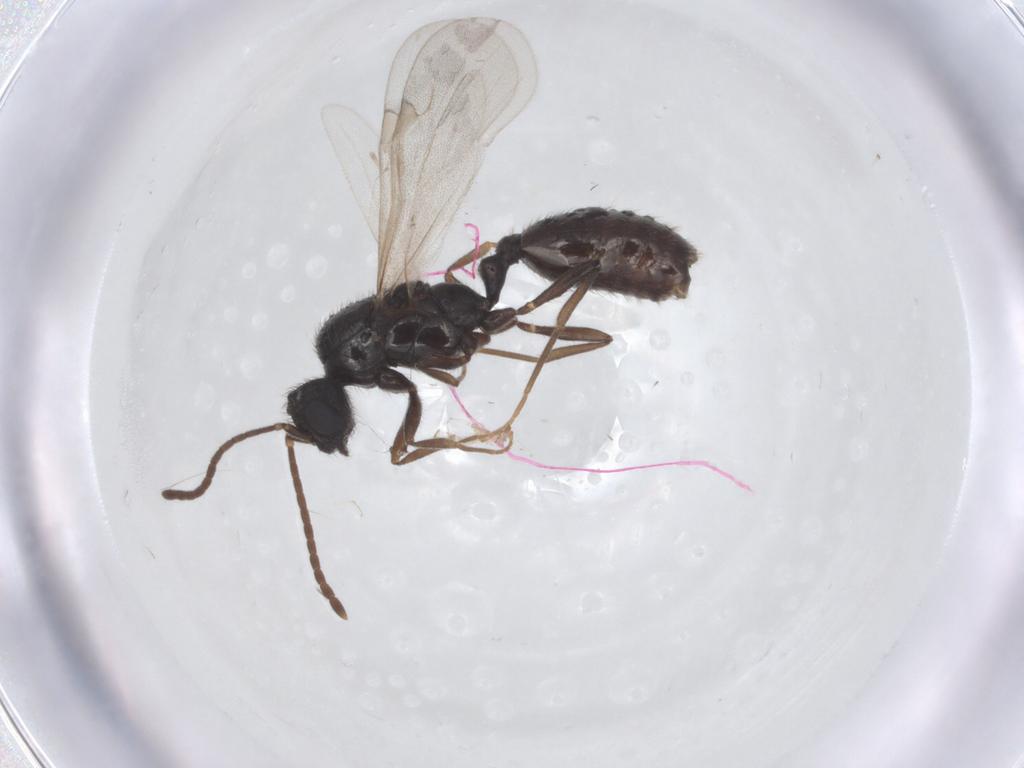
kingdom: Animalia
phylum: Arthropoda
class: Insecta
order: Hymenoptera
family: Formicidae
